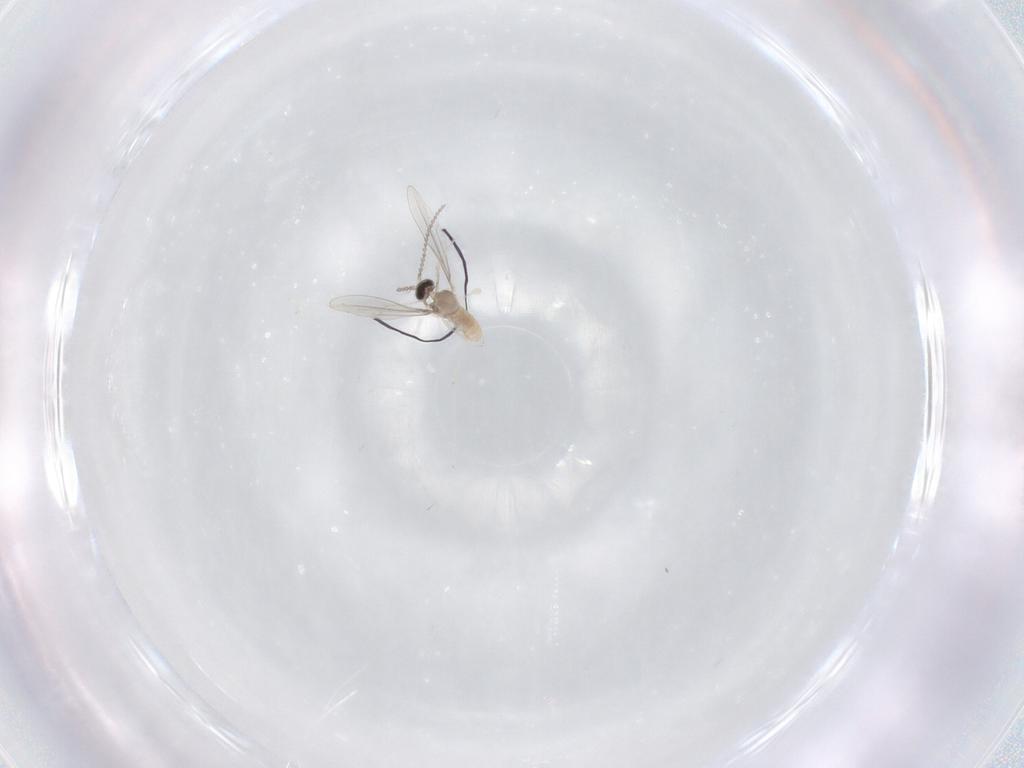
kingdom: Animalia
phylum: Arthropoda
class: Insecta
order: Diptera
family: Cecidomyiidae
